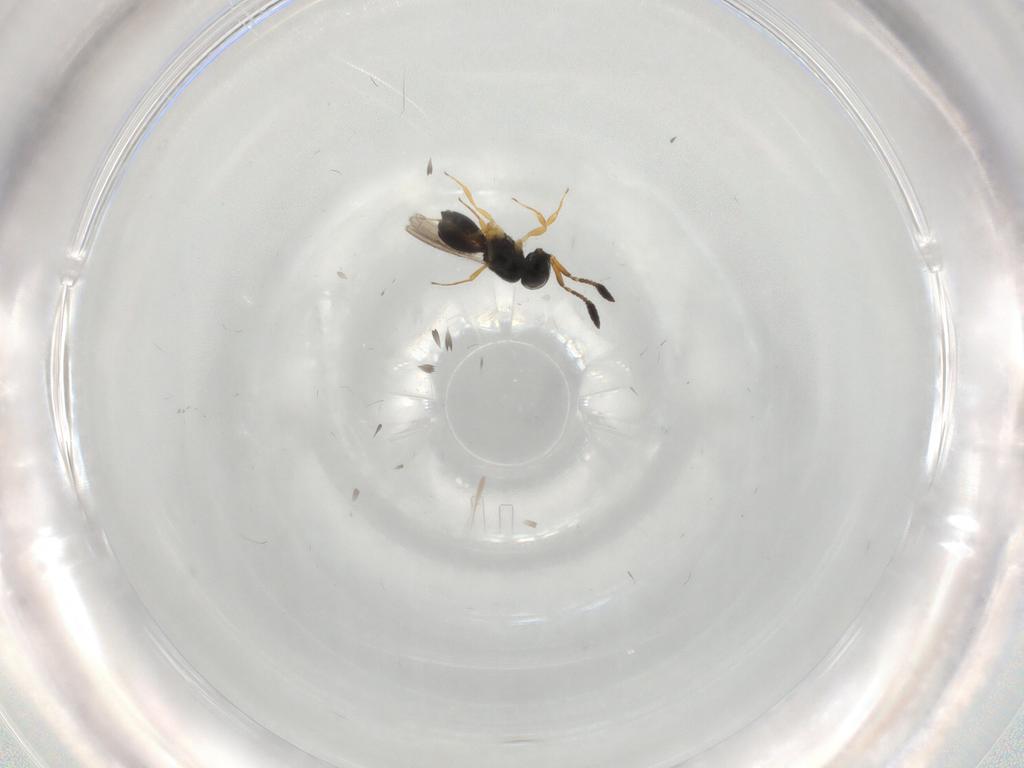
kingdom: Animalia
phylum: Arthropoda
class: Insecta
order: Hymenoptera
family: Scelionidae
